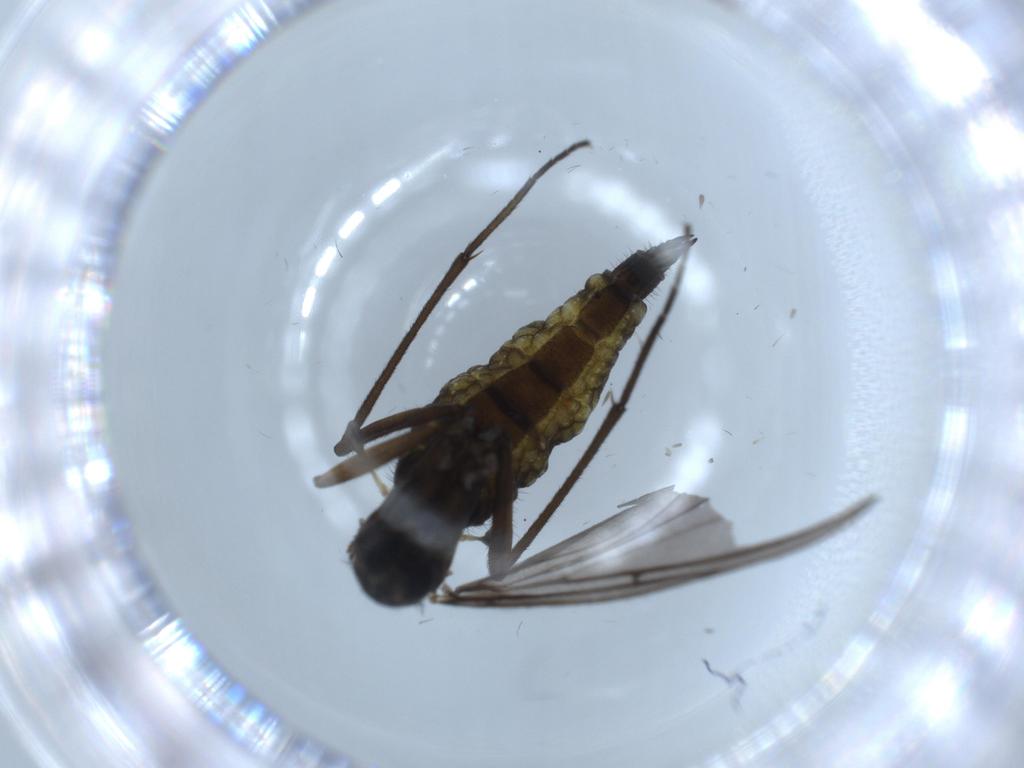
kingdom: Animalia
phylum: Arthropoda
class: Insecta
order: Diptera
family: Sciaridae
